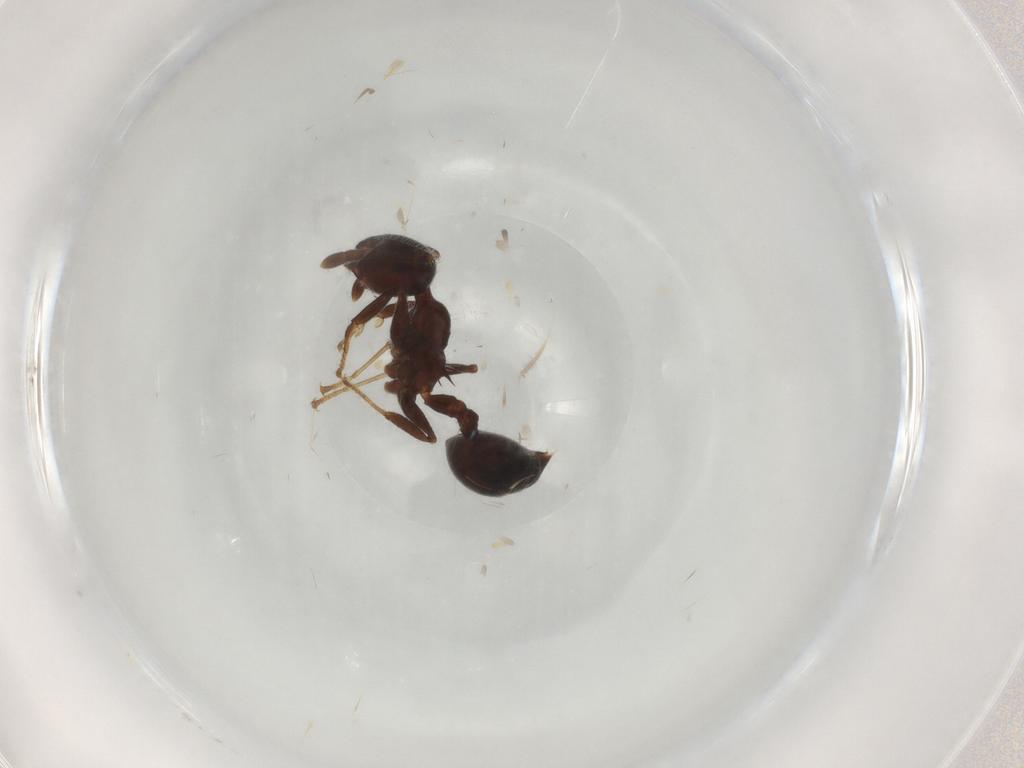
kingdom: Animalia
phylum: Arthropoda
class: Insecta
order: Hymenoptera
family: Formicidae
